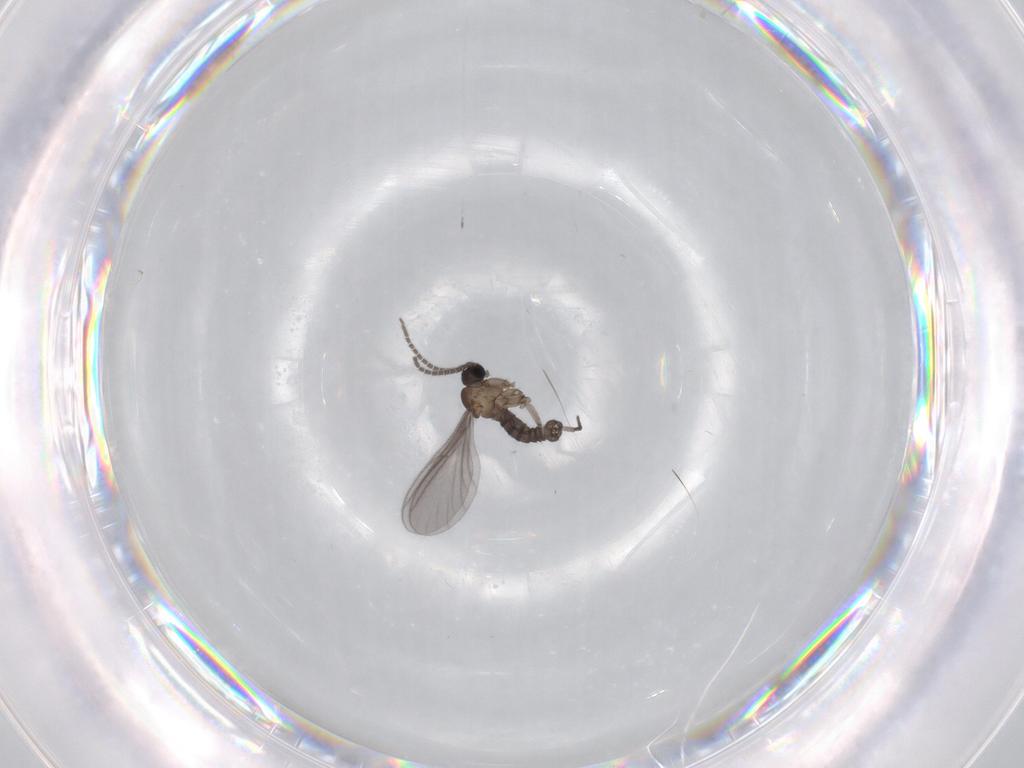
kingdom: Animalia
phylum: Arthropoda
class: Insecta
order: Diptera
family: Sciaridae
